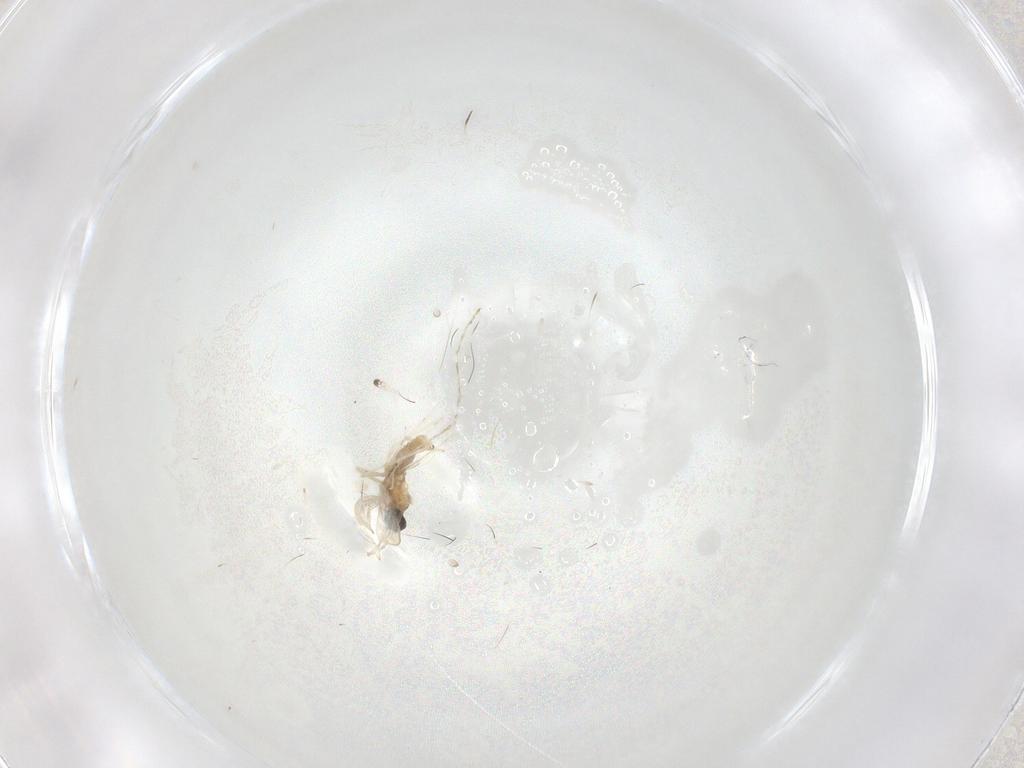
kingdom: Animalia
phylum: Arthropoda
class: Insecta
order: Diptera
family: Cecidomyiidae
